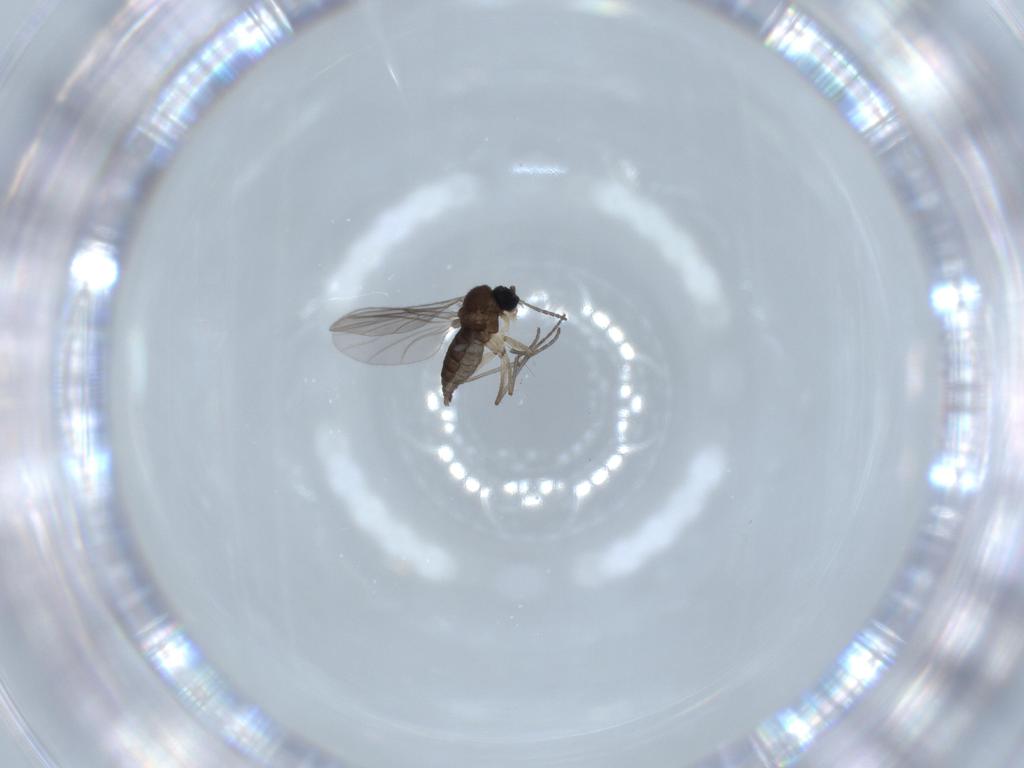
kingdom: Animalia
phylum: Arthropoda
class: Insecta
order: Diptera
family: Sciaridae
